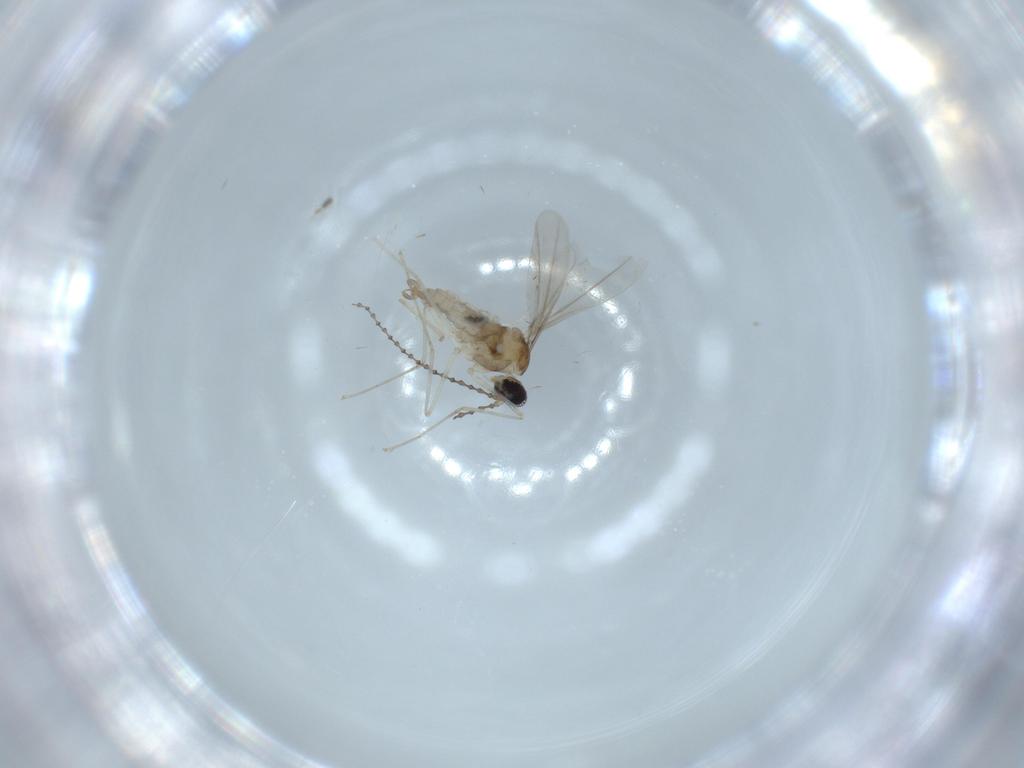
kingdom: Animalia
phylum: Arthropoda
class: Insecta
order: Diptera
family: Cecidomyiidae
